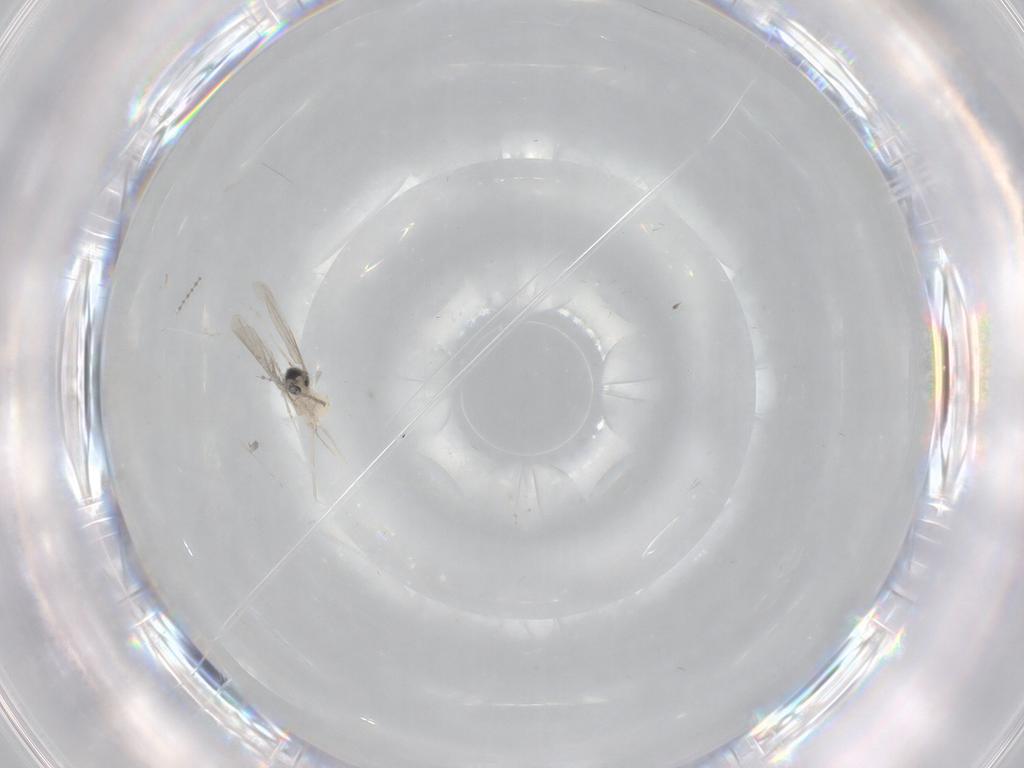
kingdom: Animalia
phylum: Arthropoda
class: Insecta
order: Diptera
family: Cecidomyiidae
